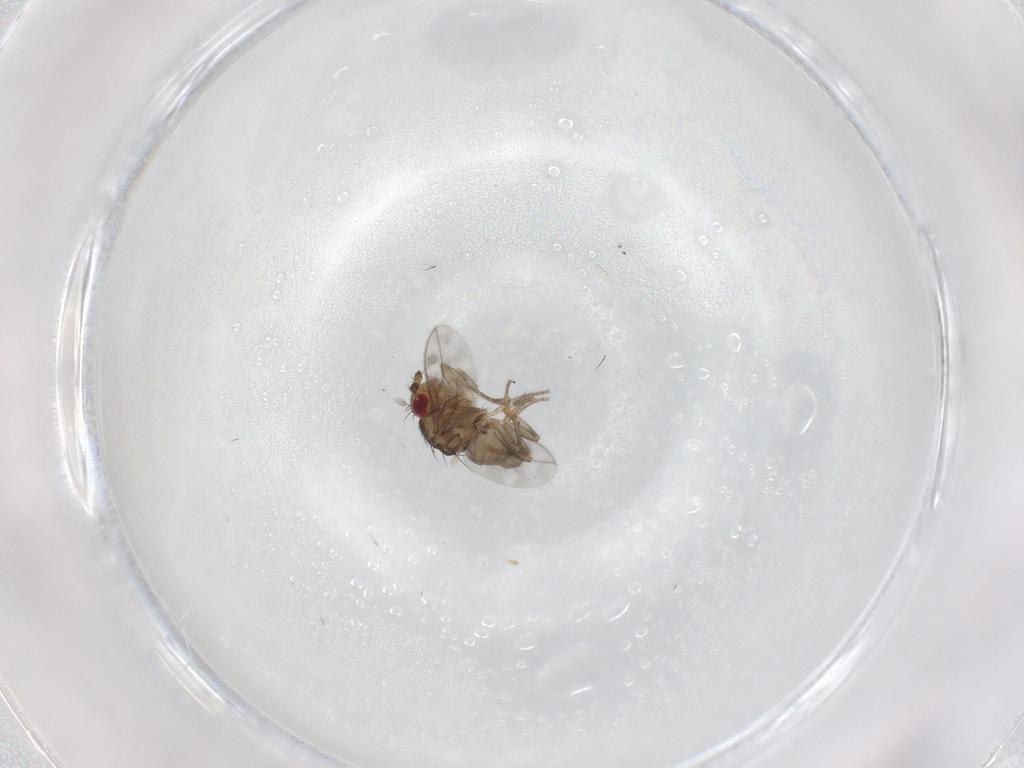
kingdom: Animalia
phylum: Arthropoda
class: Insecta
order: Diptera
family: Sphaeroceridae
